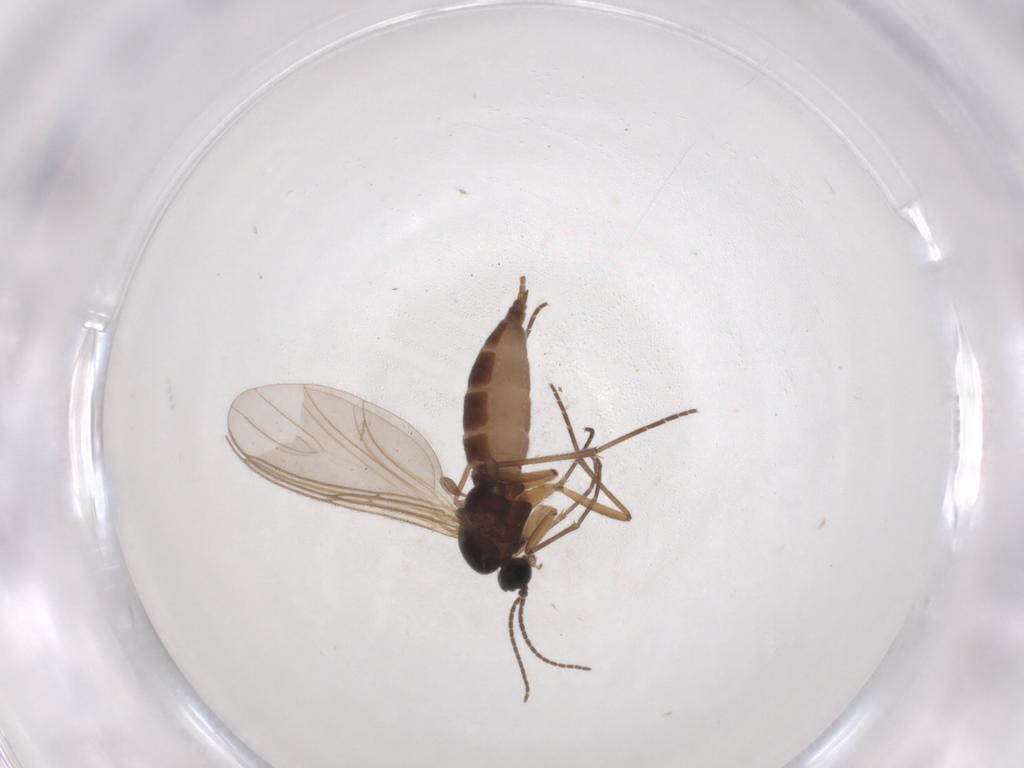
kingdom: Animalia
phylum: Arthropoda
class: Insecta
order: Diptera
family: Sciaridae
